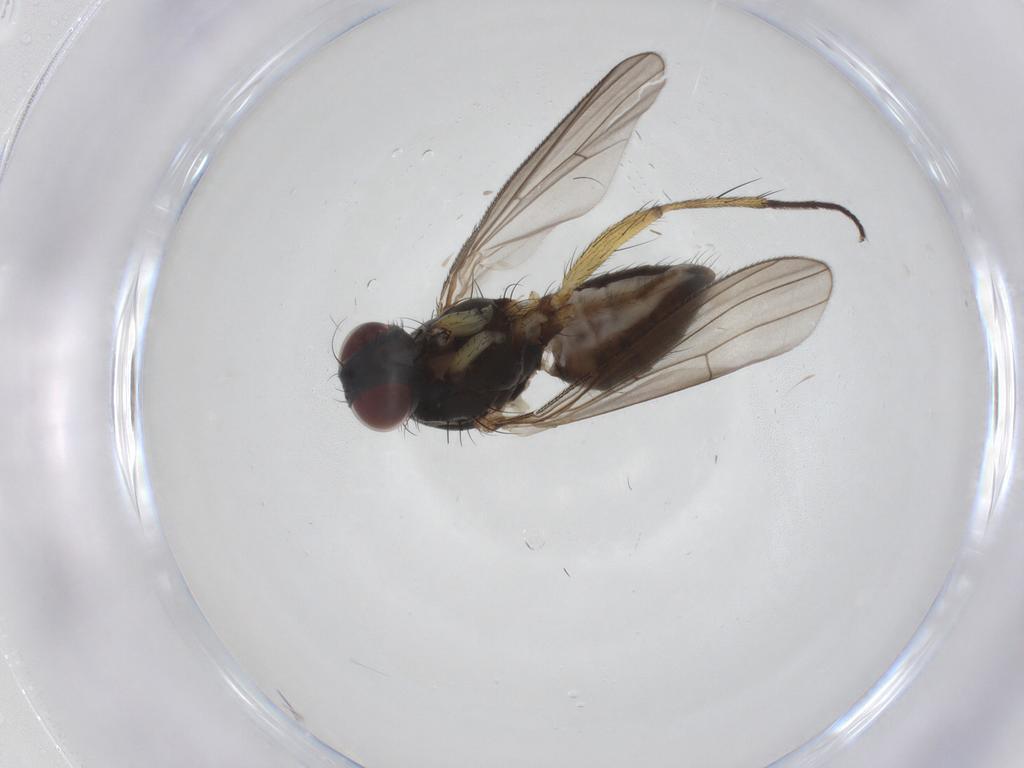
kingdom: Animalia
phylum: Arthropoda
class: Insecta
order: Diptera
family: Muscidae
